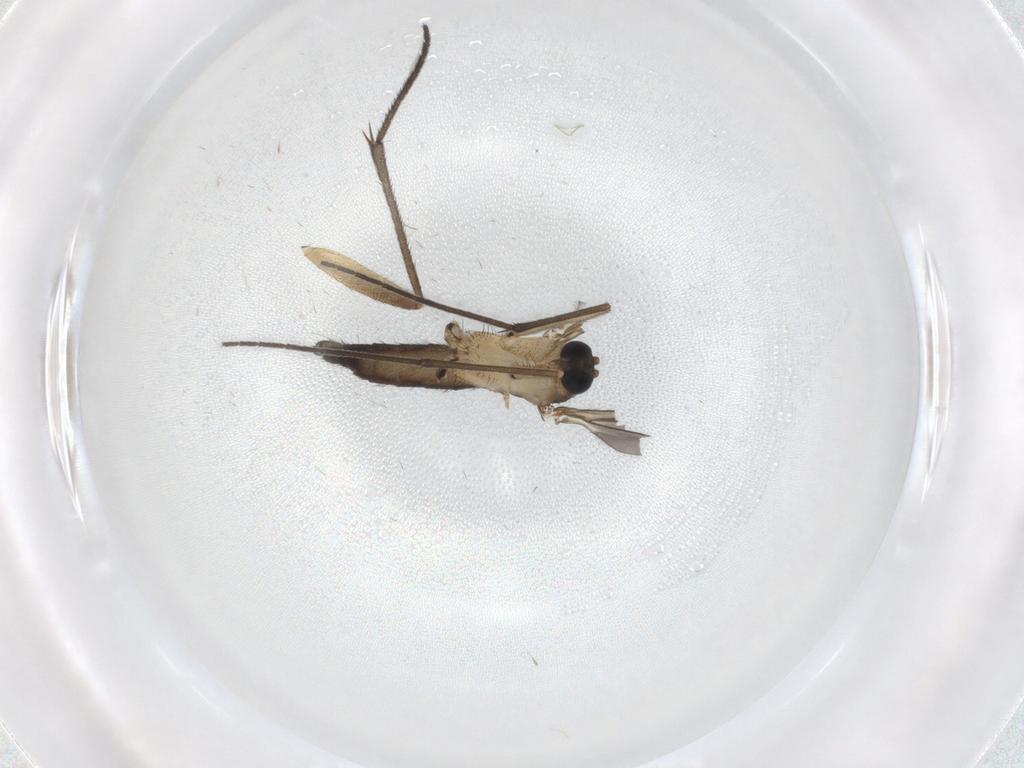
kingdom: Animalia
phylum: Arthropoda
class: Insecta
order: Diptera
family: Sciaridae
